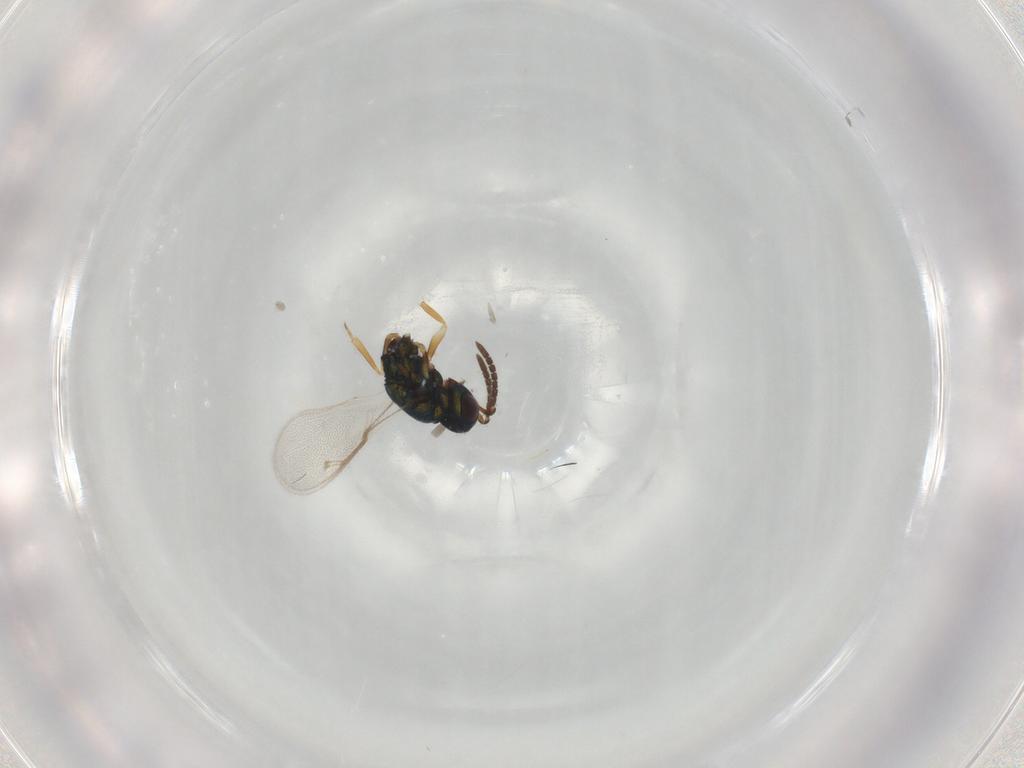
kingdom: Animalia
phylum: Arthropoda
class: Insecta
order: Hymenoptera
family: Pteromalidae
